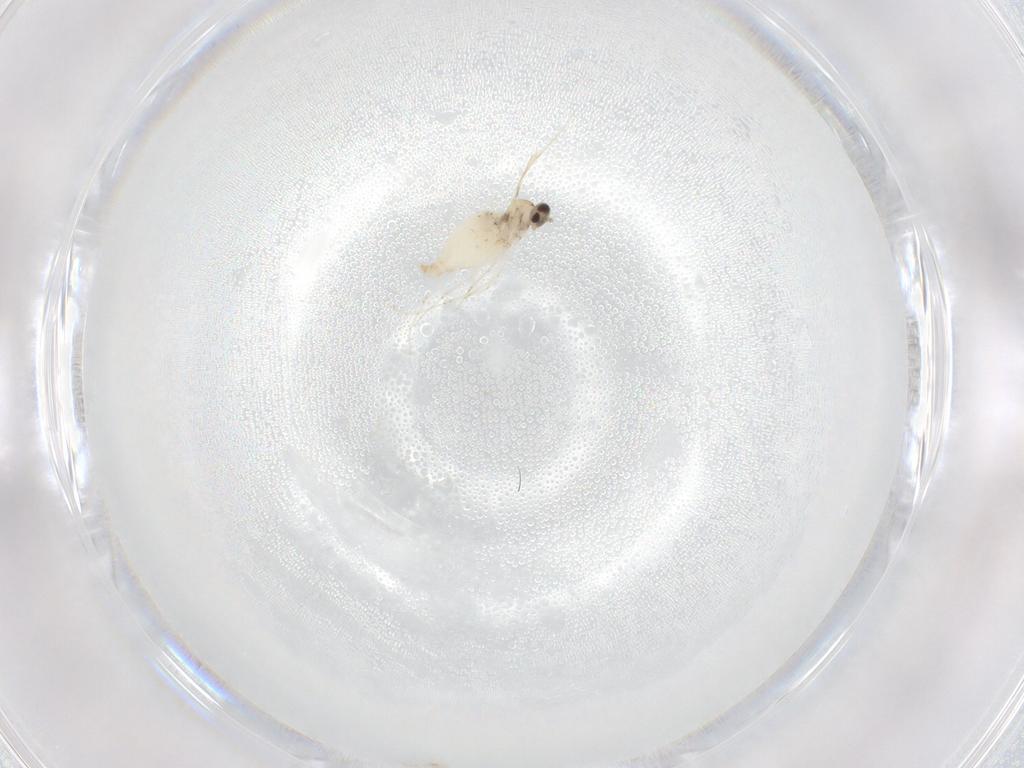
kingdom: Animalia
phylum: Arthropoda
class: Insecta
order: Diptera
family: Cecidomyiidae
